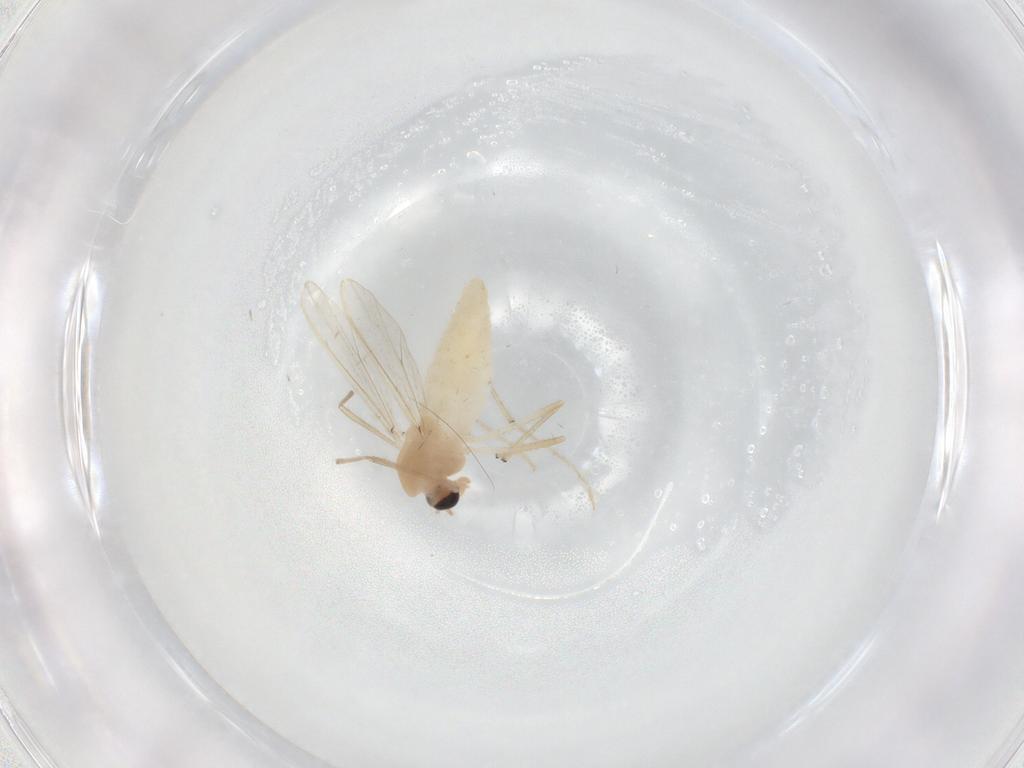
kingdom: Animalia
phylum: Arthropoda
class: Insecta
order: Diptera
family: Chironomidae
